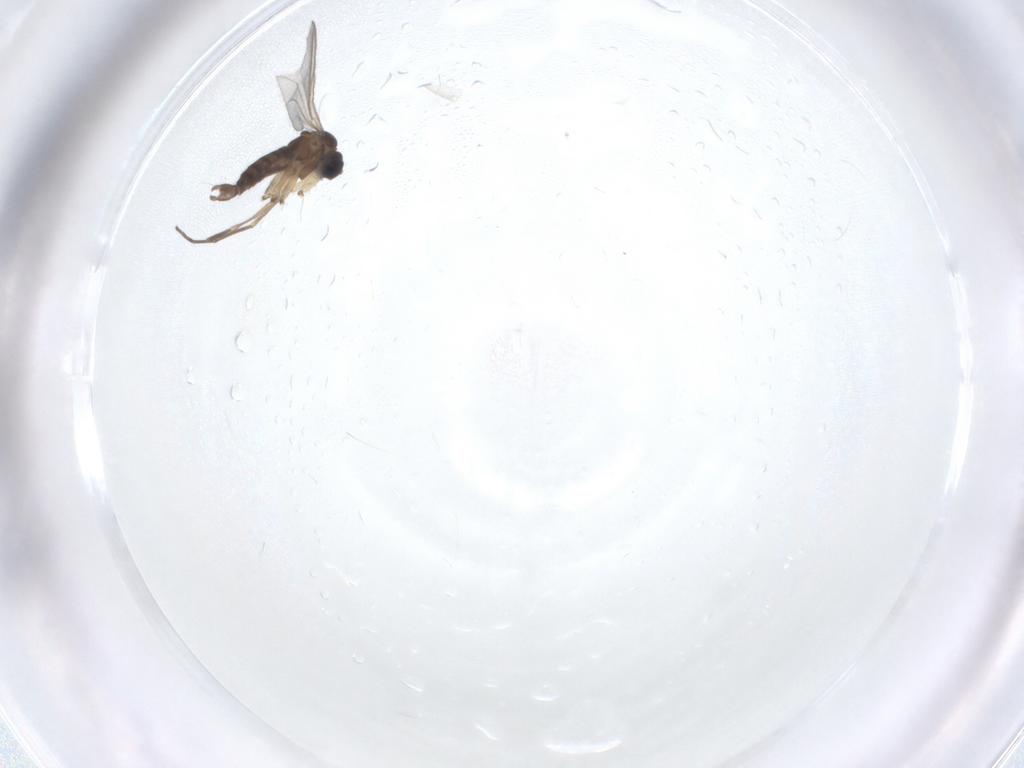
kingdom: Animalia
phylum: Arthropoda
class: Insecta
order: Diptera
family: Sciaridae
